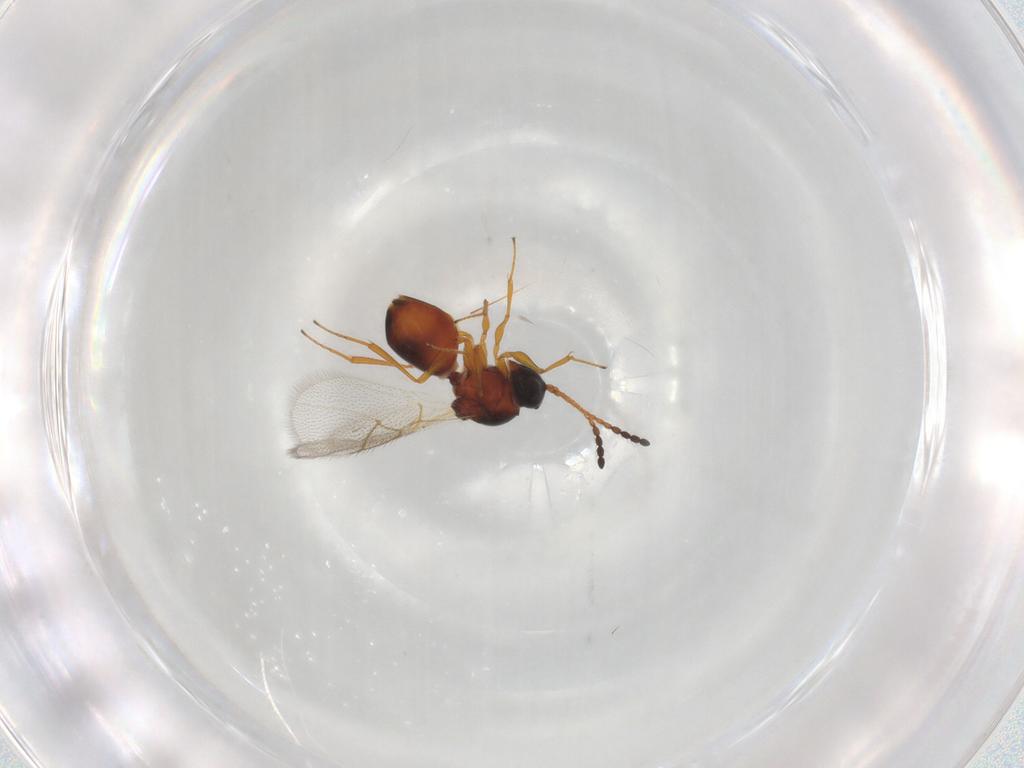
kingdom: Animalia
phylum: Arthropoda
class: Insecta
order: Hymenoptera
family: Figitidae
